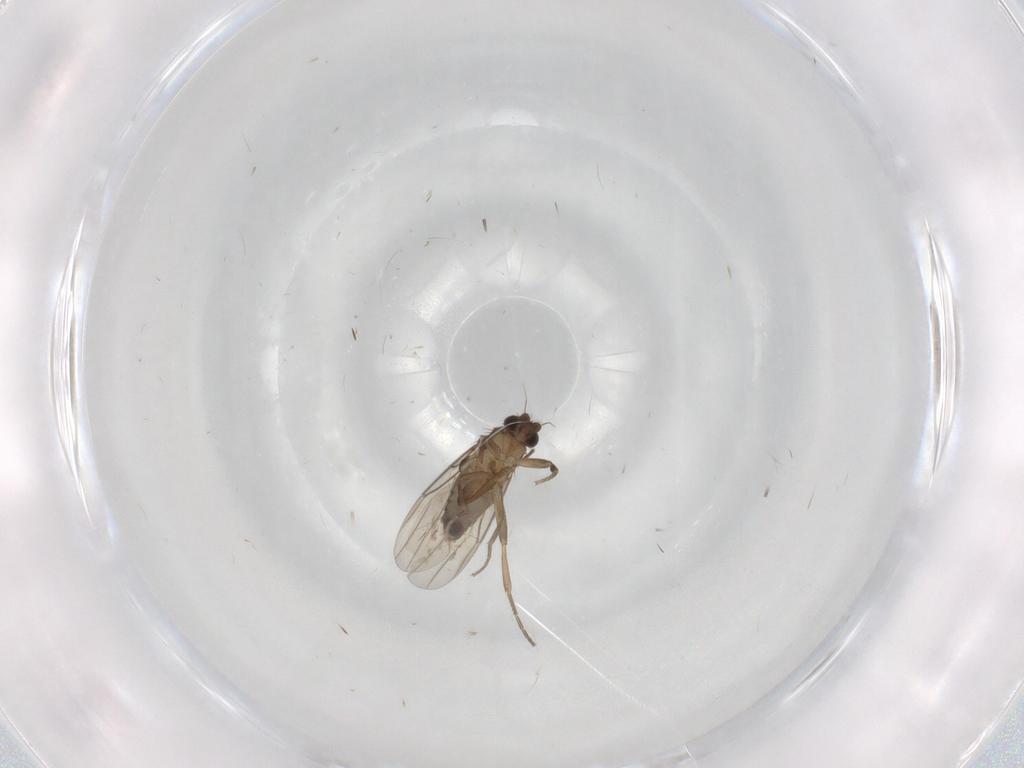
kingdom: Animalia
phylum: Arthropoda
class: Insecta
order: Diptera
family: Phoridae
